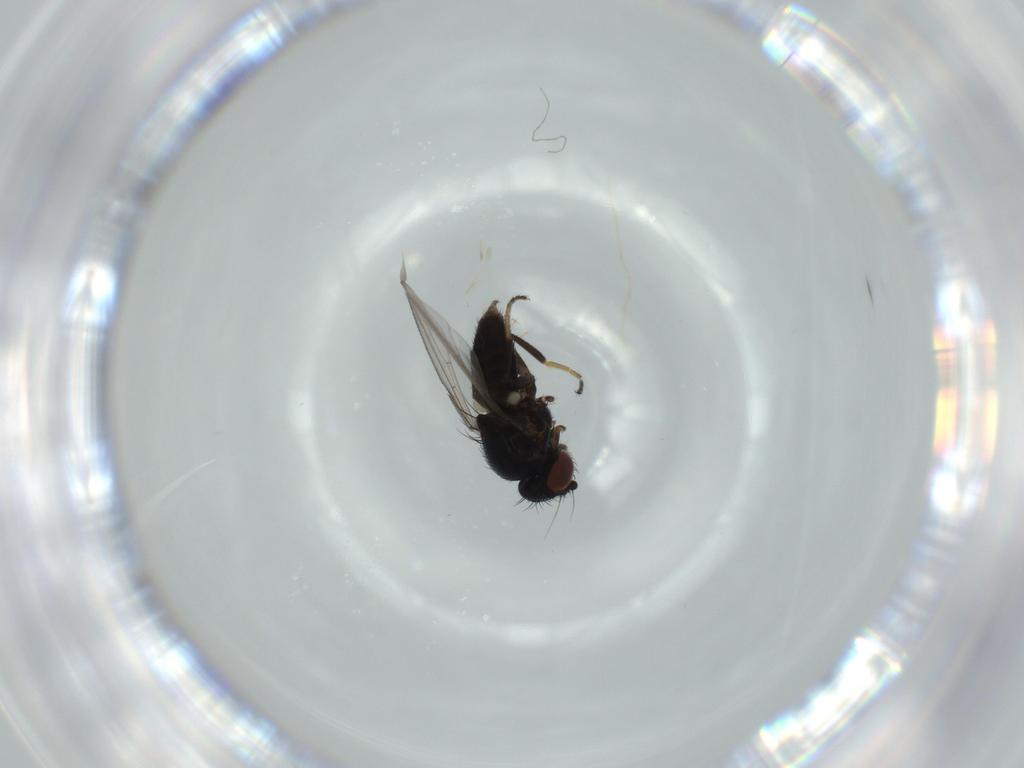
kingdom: Animalia
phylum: Arthropoda
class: Insecta
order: Diptera
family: Milichiidae
